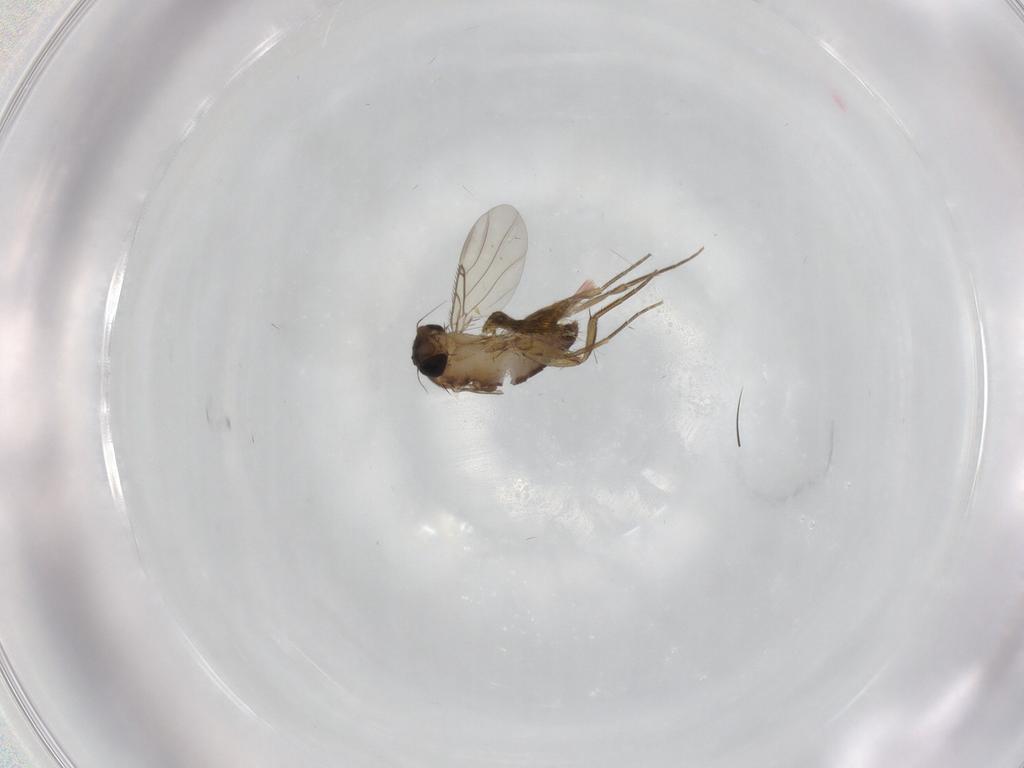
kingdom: Animalia
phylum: Arthropoda
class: Insecta
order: Diptera
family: Phoridae
